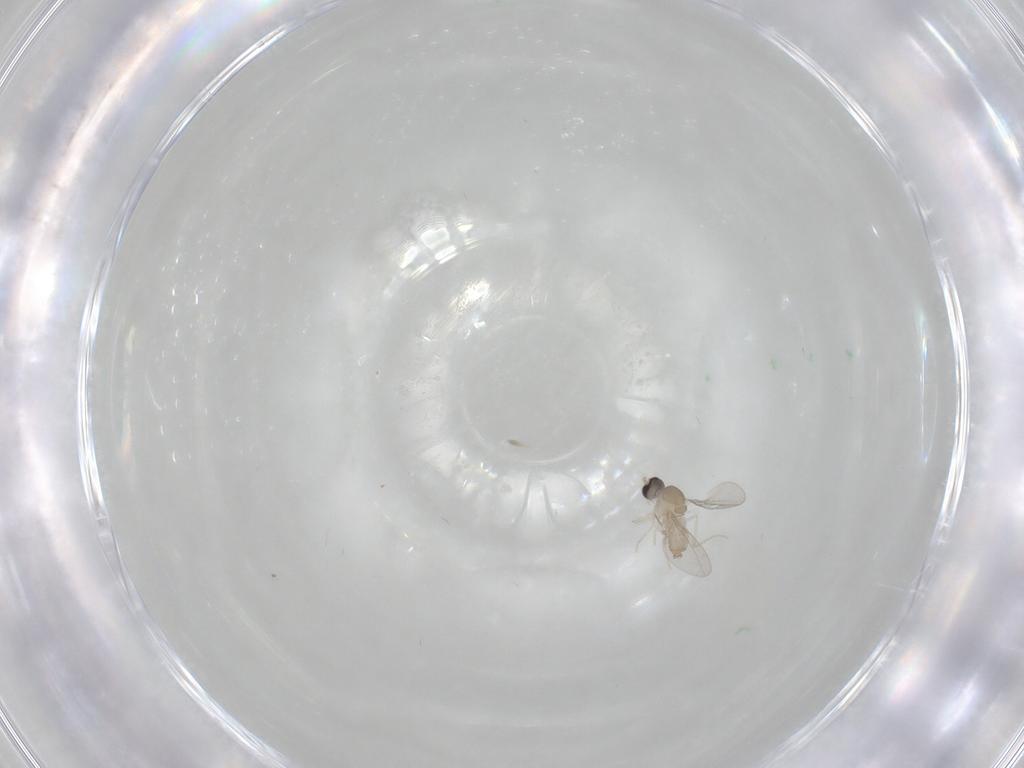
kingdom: Animalia
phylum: Arthropoda
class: Insecta
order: Diptera
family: Cecidomyiidae
